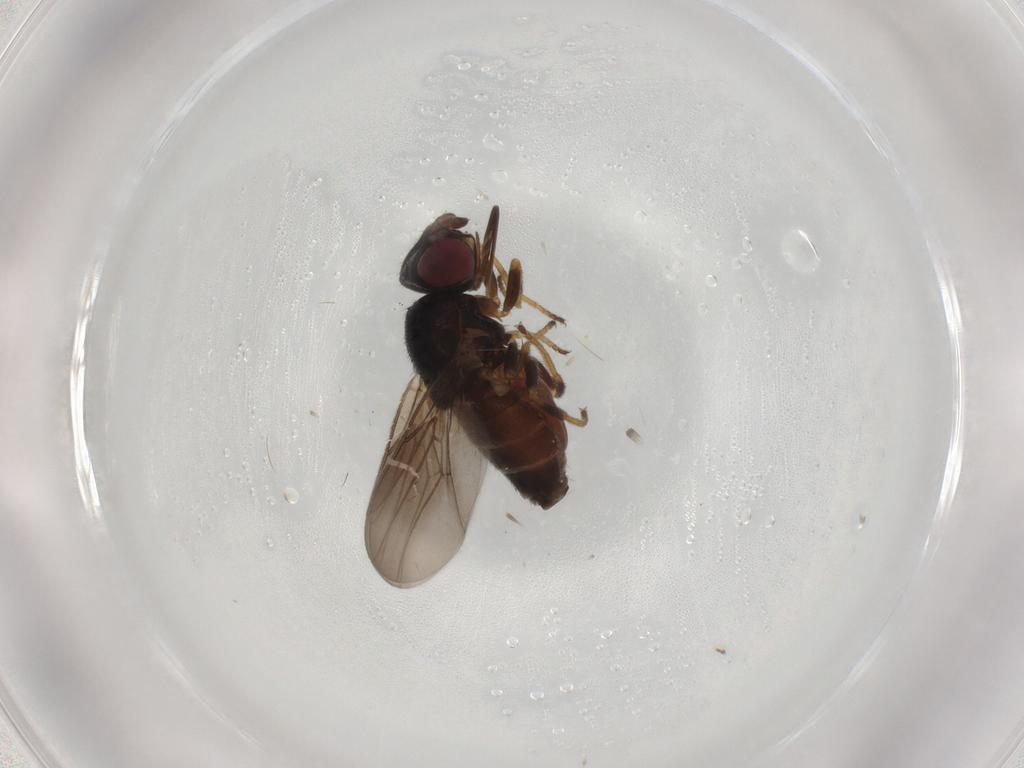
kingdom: Animalia
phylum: Arthropoda
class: Insecta
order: Diptera
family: Chloropidae
